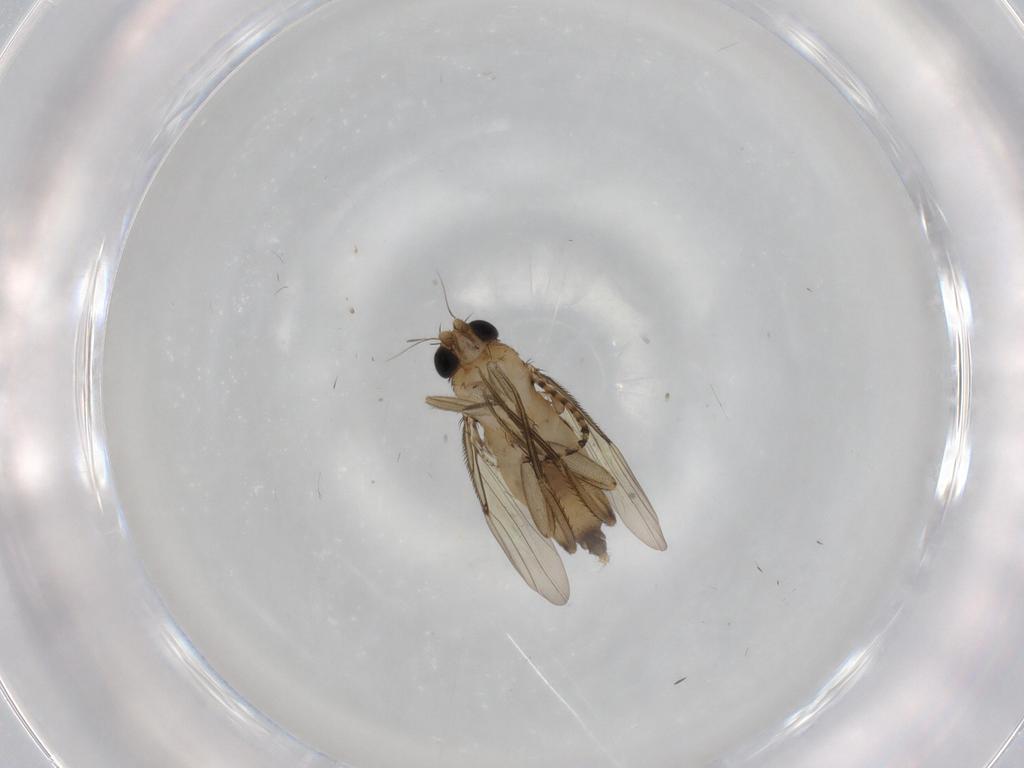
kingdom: Animalia
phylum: Arthropoda
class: Insecta
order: Diptera
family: Phoridae
